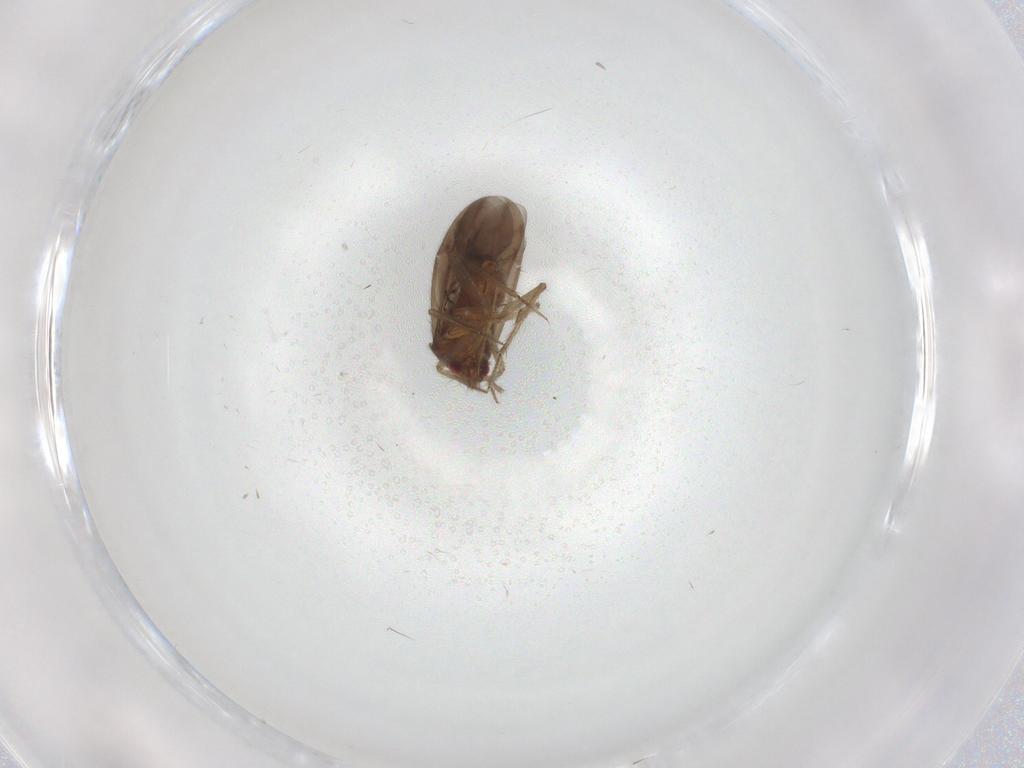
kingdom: Animalia
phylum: Arthropoda
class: Insecta
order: Hemiptera
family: Ceratocombidae
